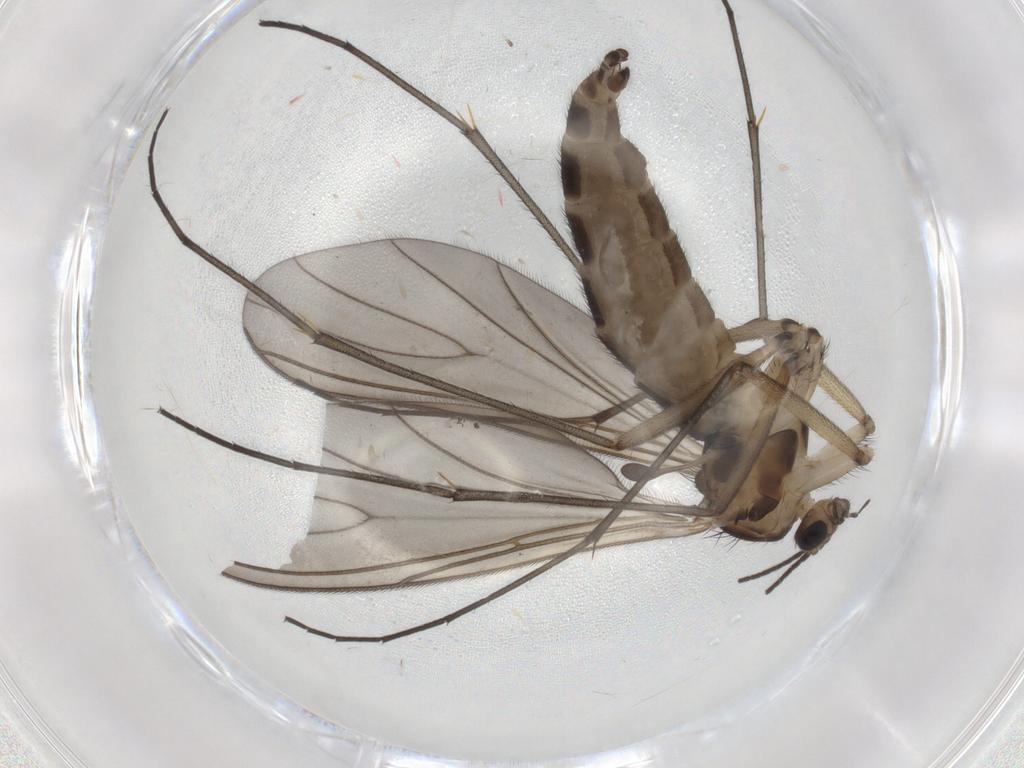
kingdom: Animalia
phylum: Arthropoda
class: Insecta
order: Diptera
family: Sciaridae
